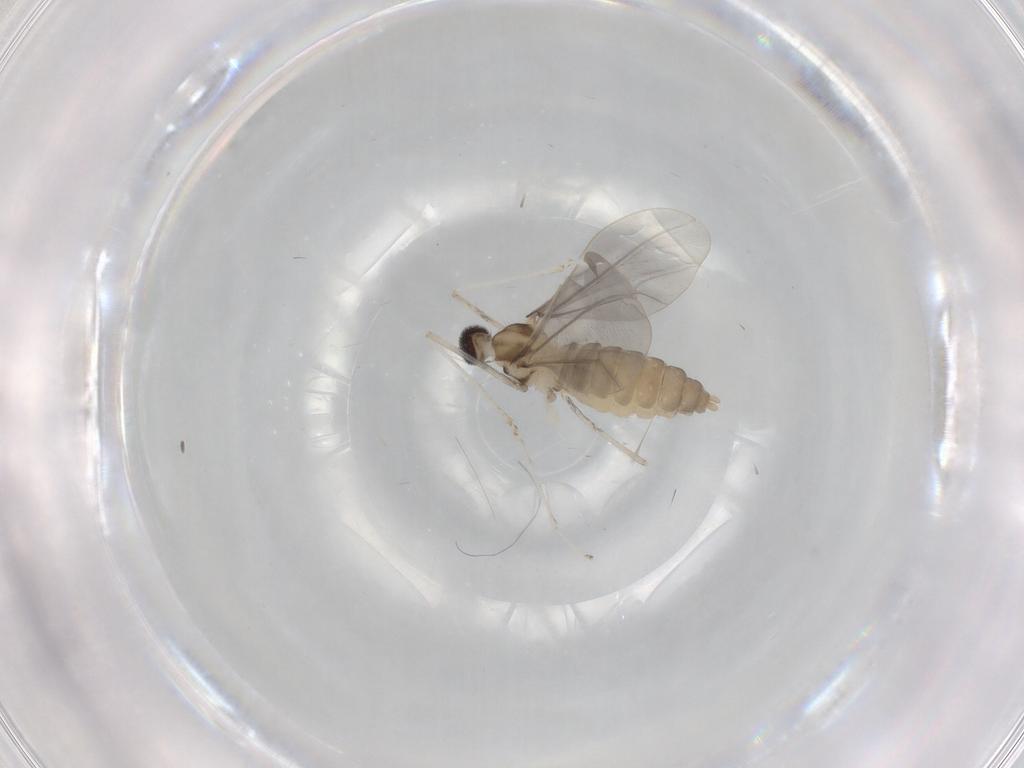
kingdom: Animalia
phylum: Arthropoda
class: Insecta
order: Diptera
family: Cecidomyiidae
